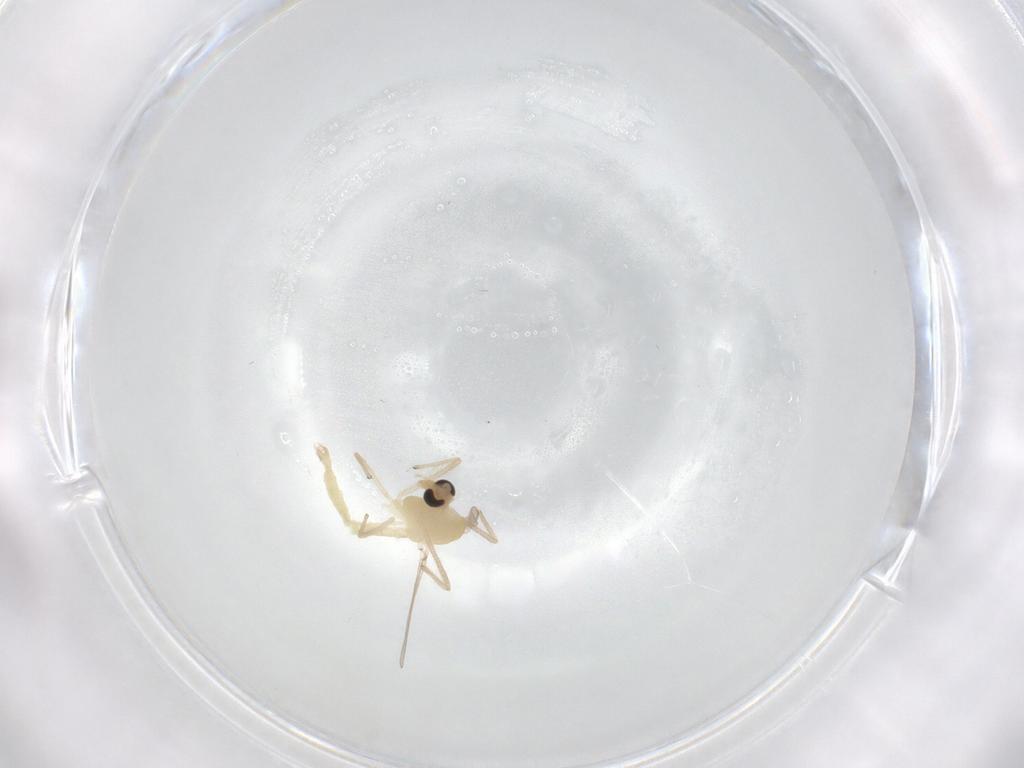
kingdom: Animalia
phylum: Arthropoda
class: Insecta
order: Diptera
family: Chironomidae
